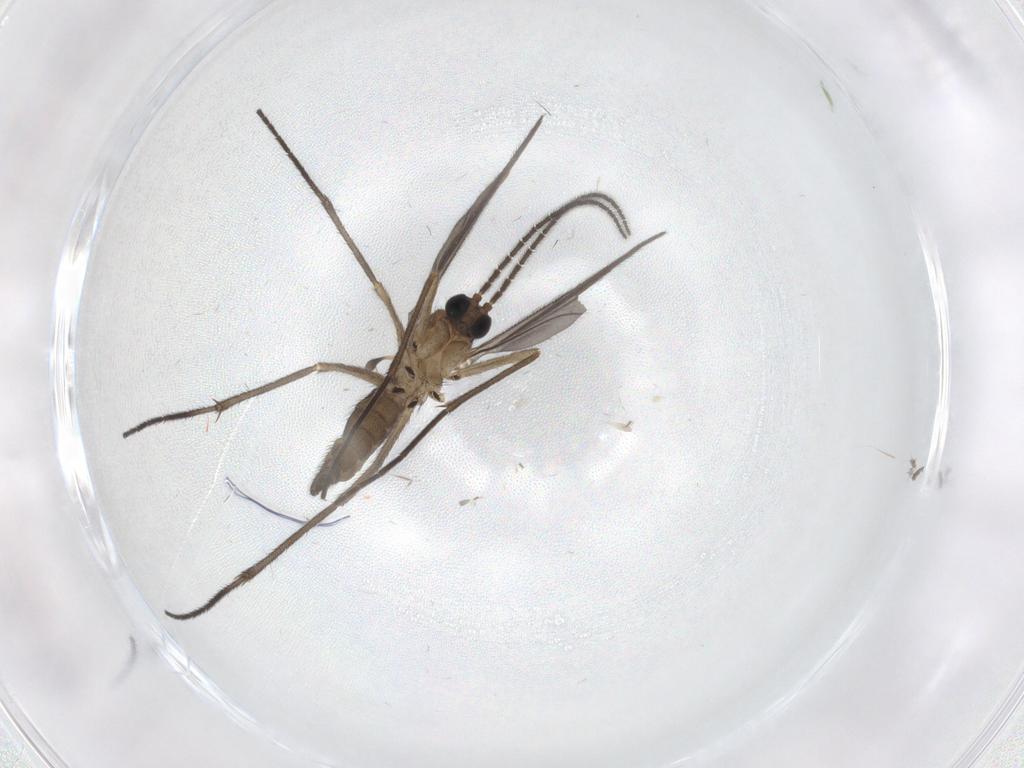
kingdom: Animalia
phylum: Arthropoda
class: Insecta
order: Diptera
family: Sciaridae
